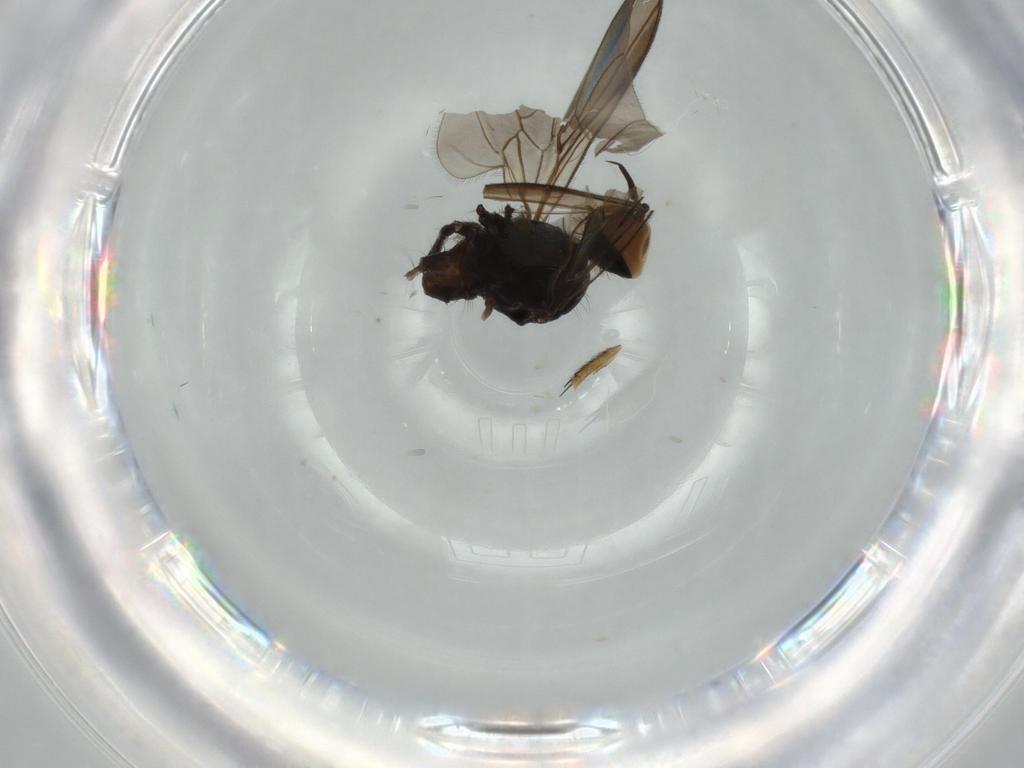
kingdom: Animalia
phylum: Arthropoda
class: Insecta
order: Diptera
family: Empididae
